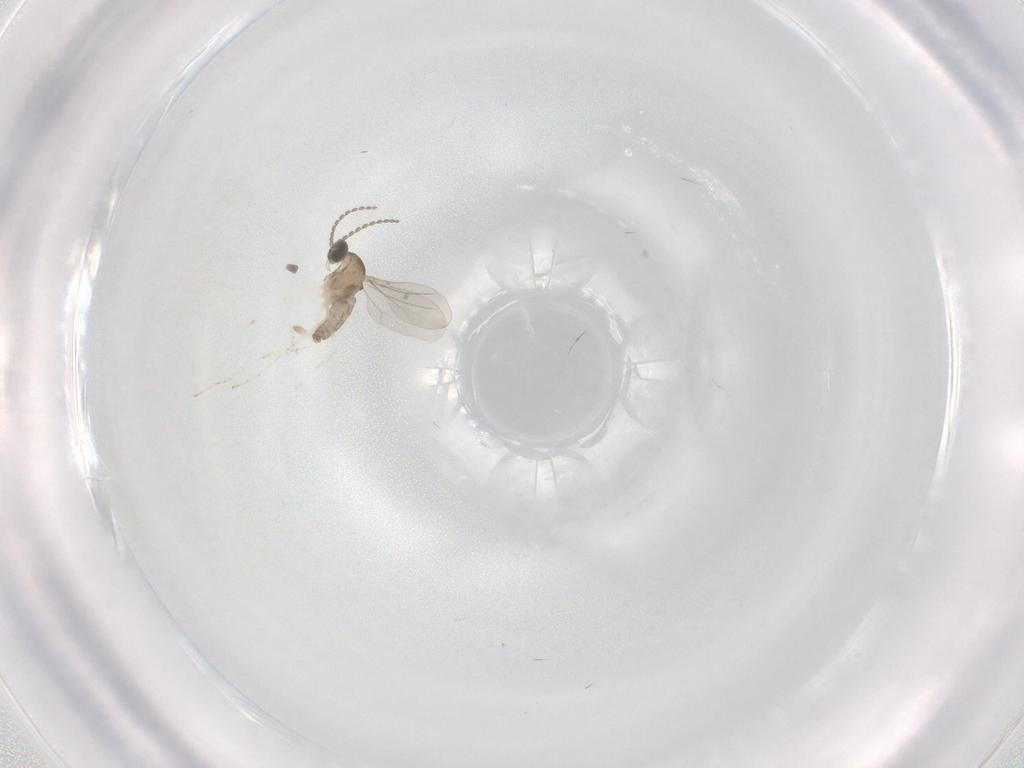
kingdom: Animalia
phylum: Arthropoda
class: Insecta
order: Diptera
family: Cecidomyiidae
